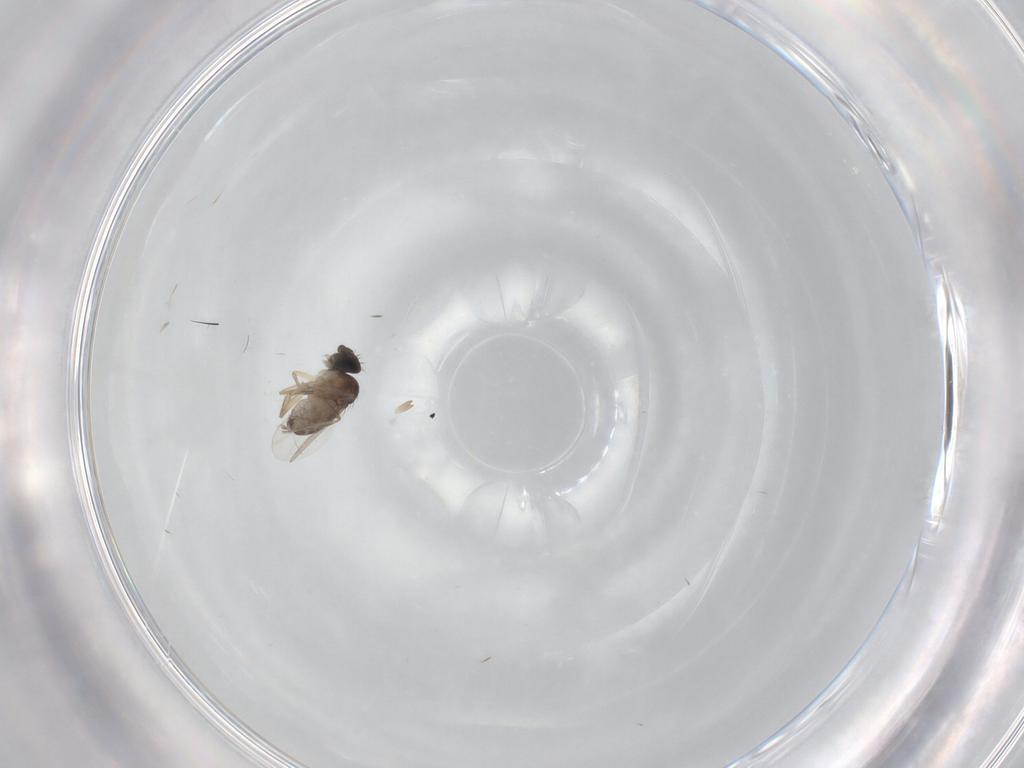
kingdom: Animalia
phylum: Arthropoda
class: Insecta
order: Diptera
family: Phoridae
